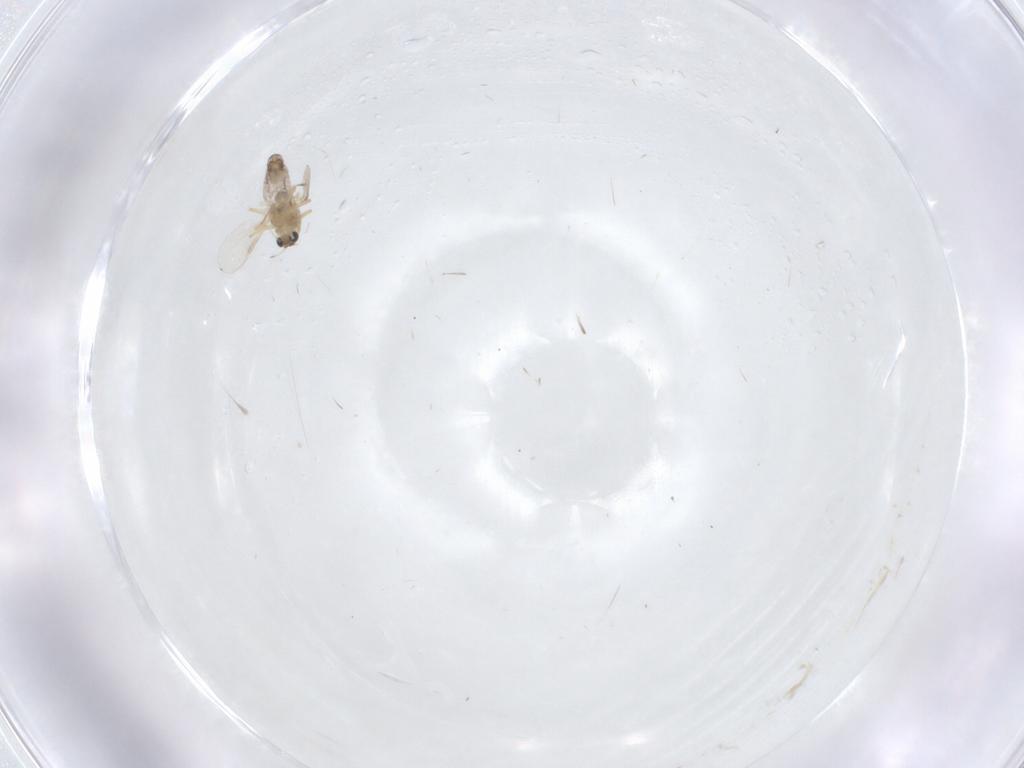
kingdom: Animalia
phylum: Arthropoda
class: Insecta
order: Diptera
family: Chironomidae
